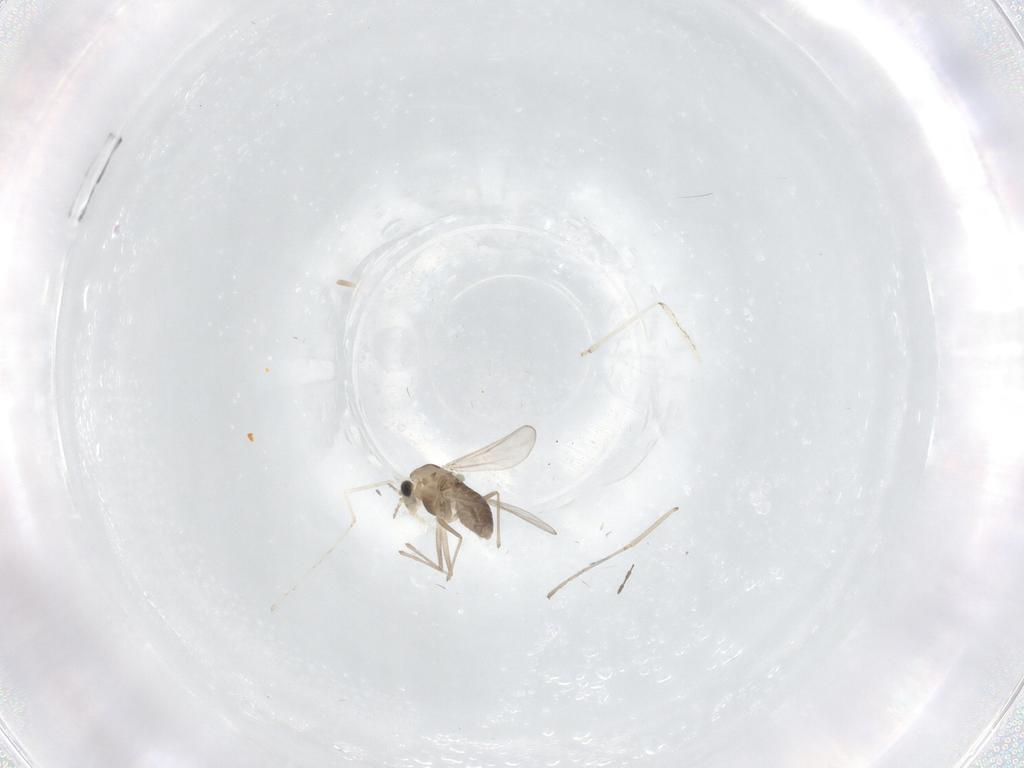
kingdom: Animalia
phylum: Arthropoda
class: Insecta
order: Diptera
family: Chironomidae
